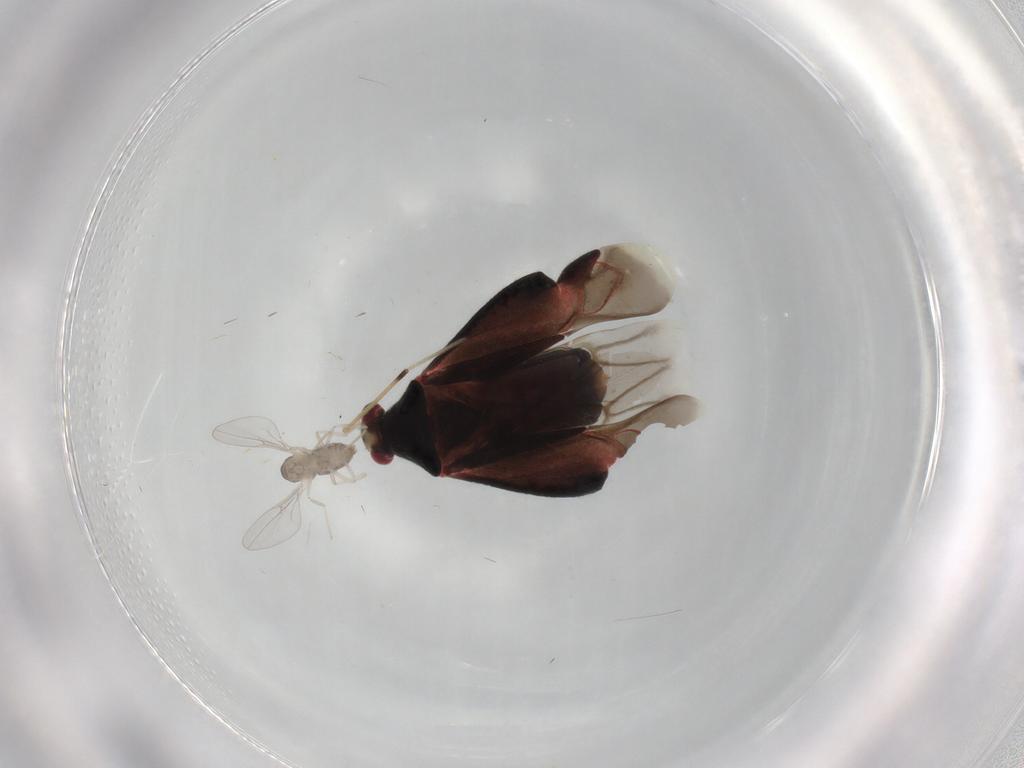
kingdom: Animalia
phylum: Arthropoda
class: Insecta
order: Diptera
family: Cecidomyiidae
